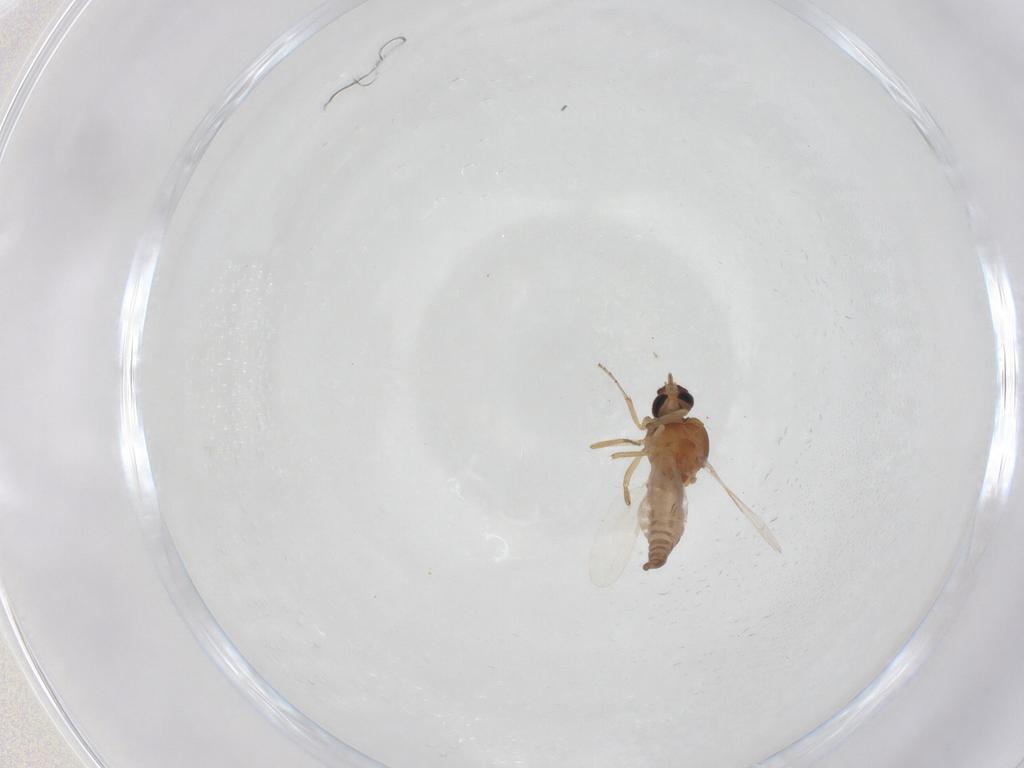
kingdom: Animalia
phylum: Arthropoda
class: Insecta
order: Diptera
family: Ceratopogonidae
